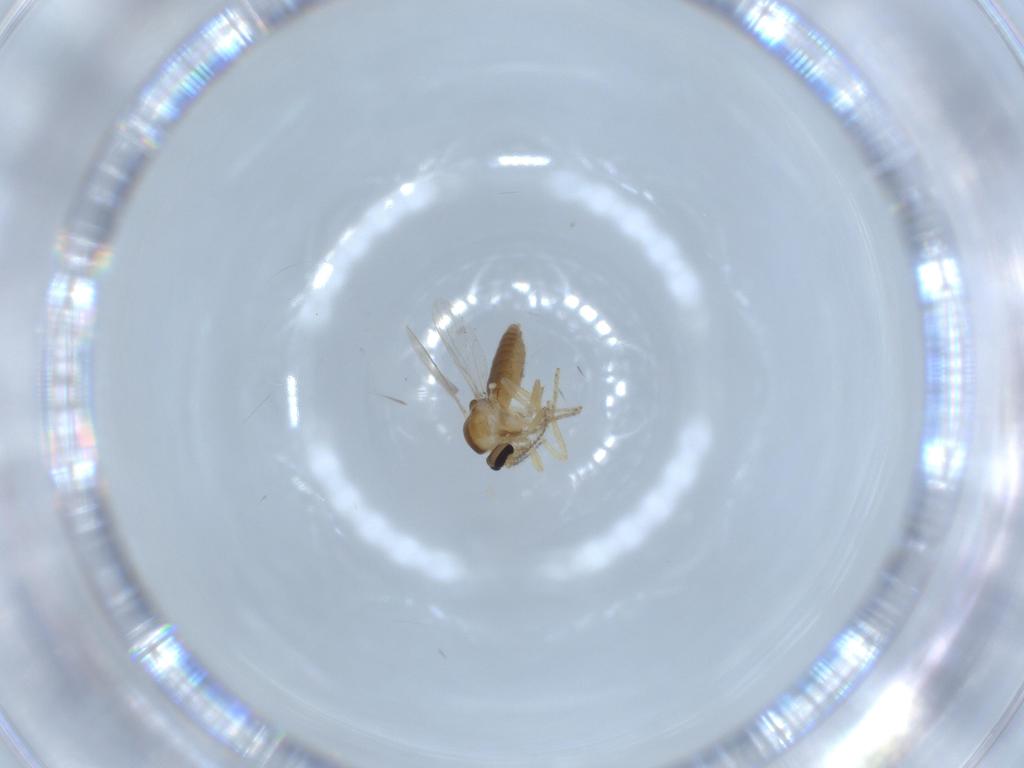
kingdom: Animalia
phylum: Arthropoda
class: Insecta
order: Diptera
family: Ceratopogonidae
